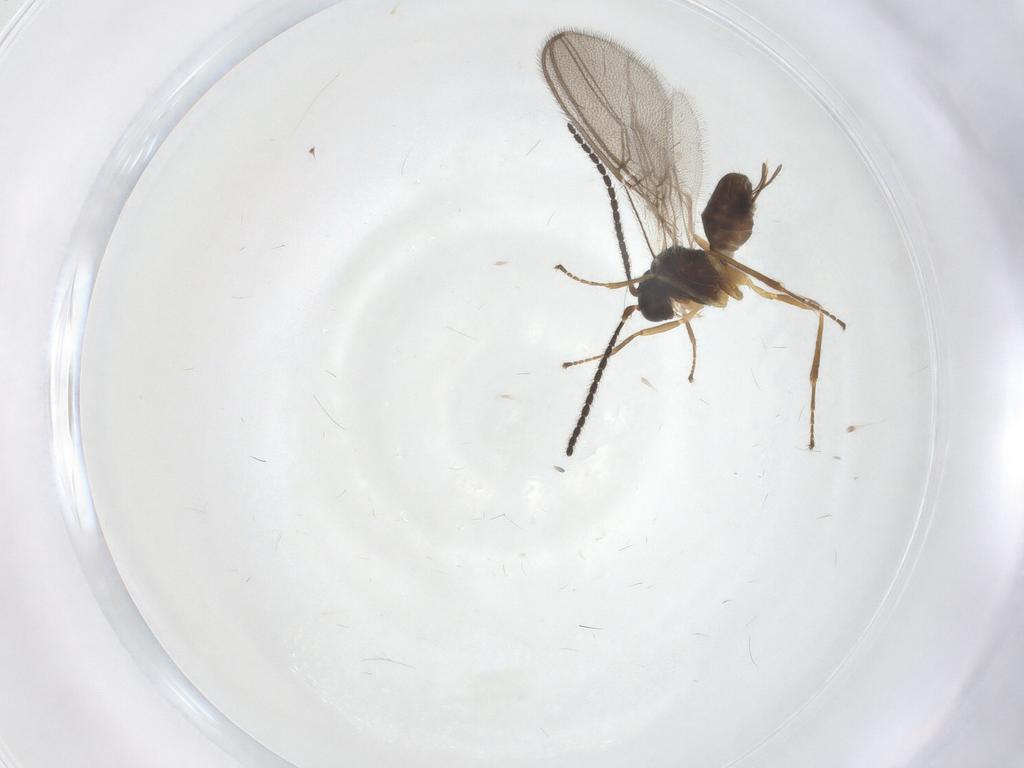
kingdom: Animalia
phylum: Arthropoda
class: Insecta
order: Hymenoptera
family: Braconidae
